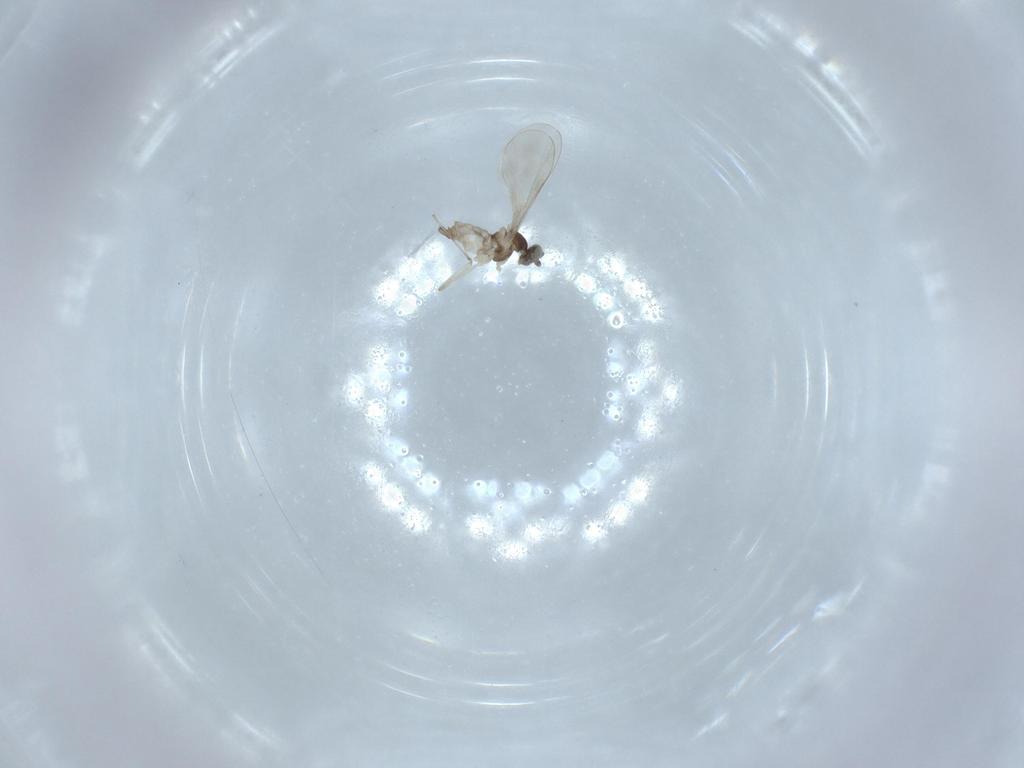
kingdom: Animalia
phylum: Arthropoda
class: Insecta
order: Diptera
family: Cecidomyiidae
